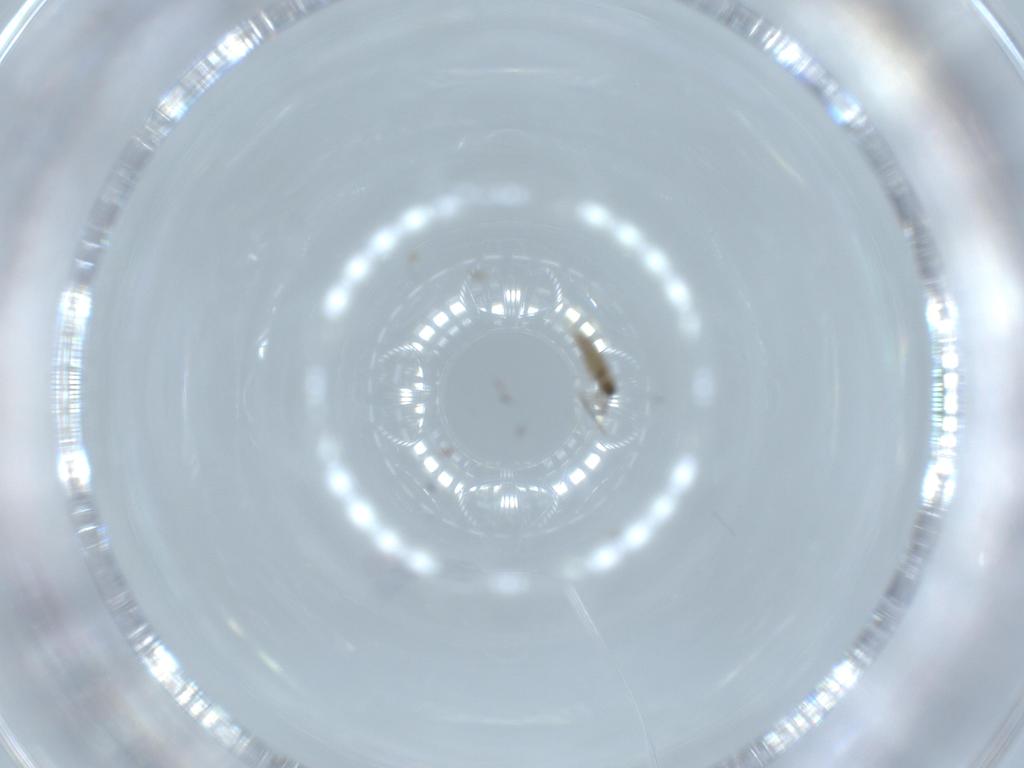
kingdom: Animalia
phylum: Arthropoda
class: Insecta
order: Diptera
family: Cecidomyiidae
